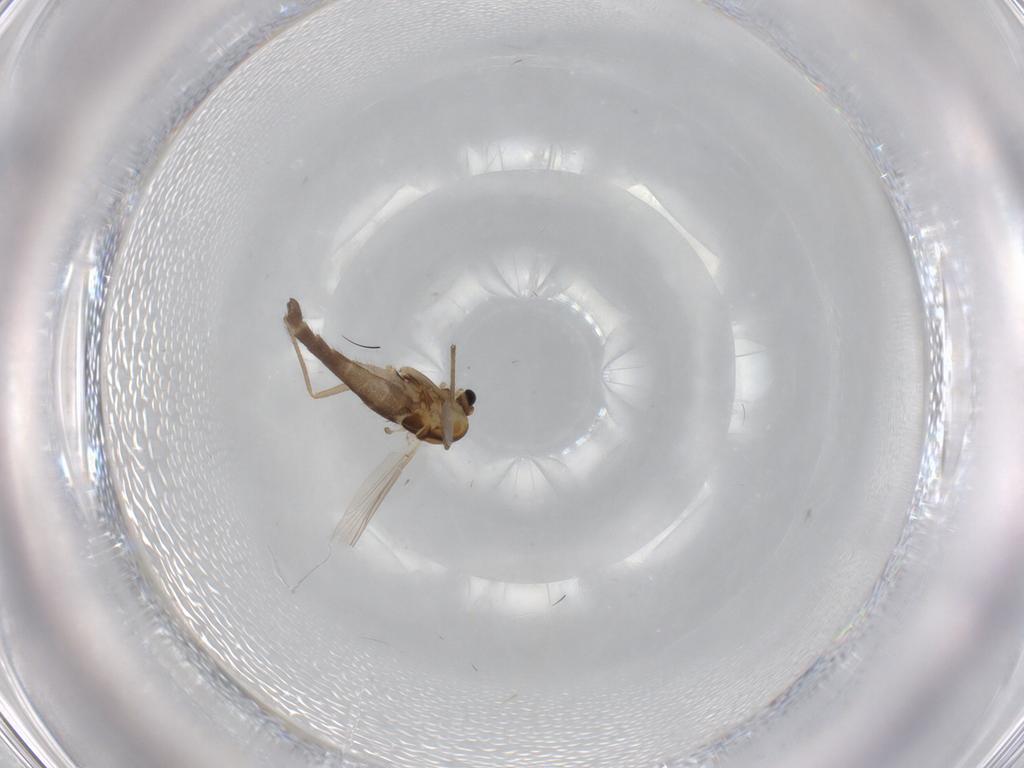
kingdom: Animalia
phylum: Arthropoda
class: Insecta
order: Diptera
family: Chironomidae
